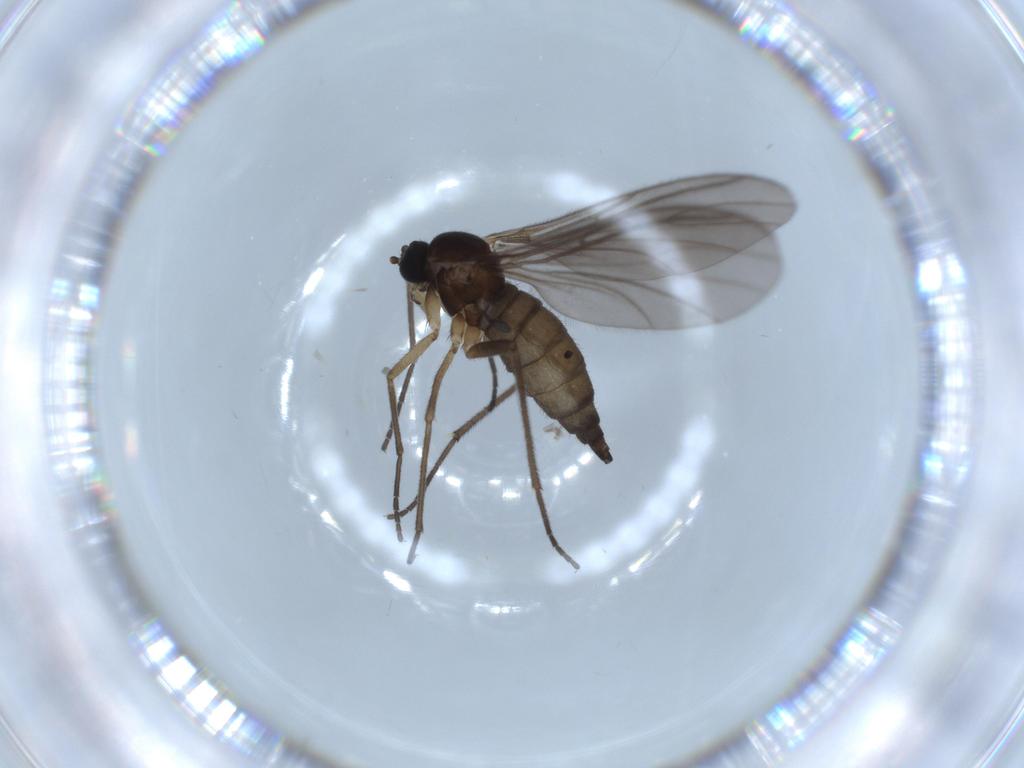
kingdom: Animalia
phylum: Arthropoda
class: Insecta
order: Diptera
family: Sciaridae
